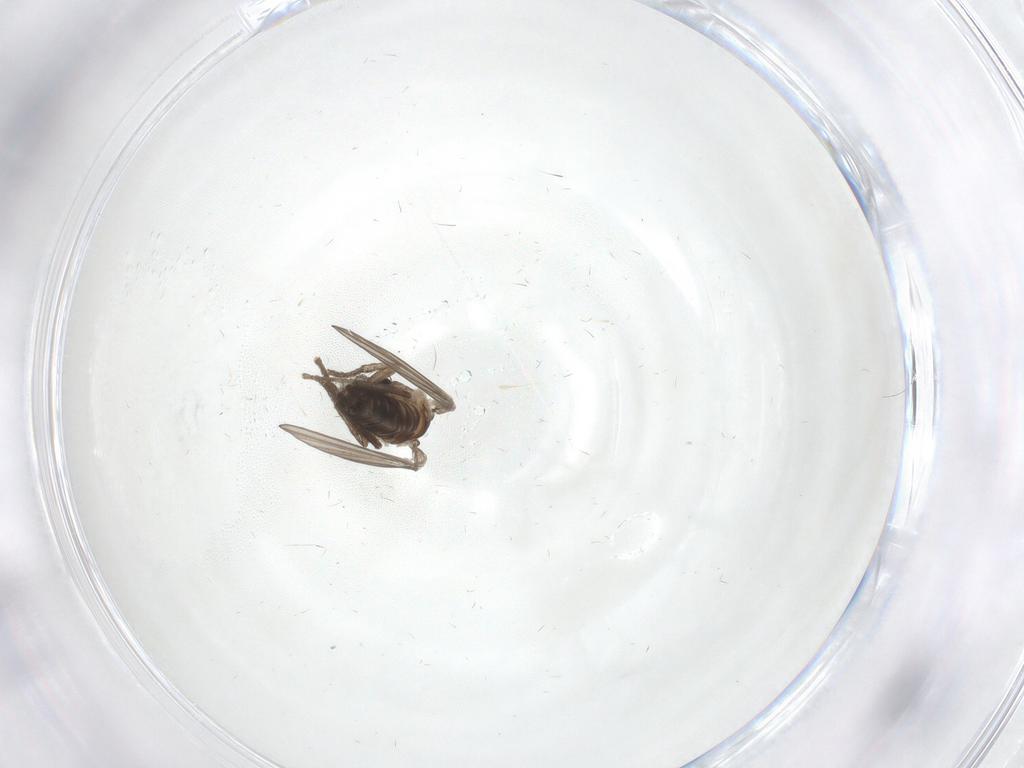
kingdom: Animalia
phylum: Arthropoda
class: Insecta
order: Diptera
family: Psychodidae
